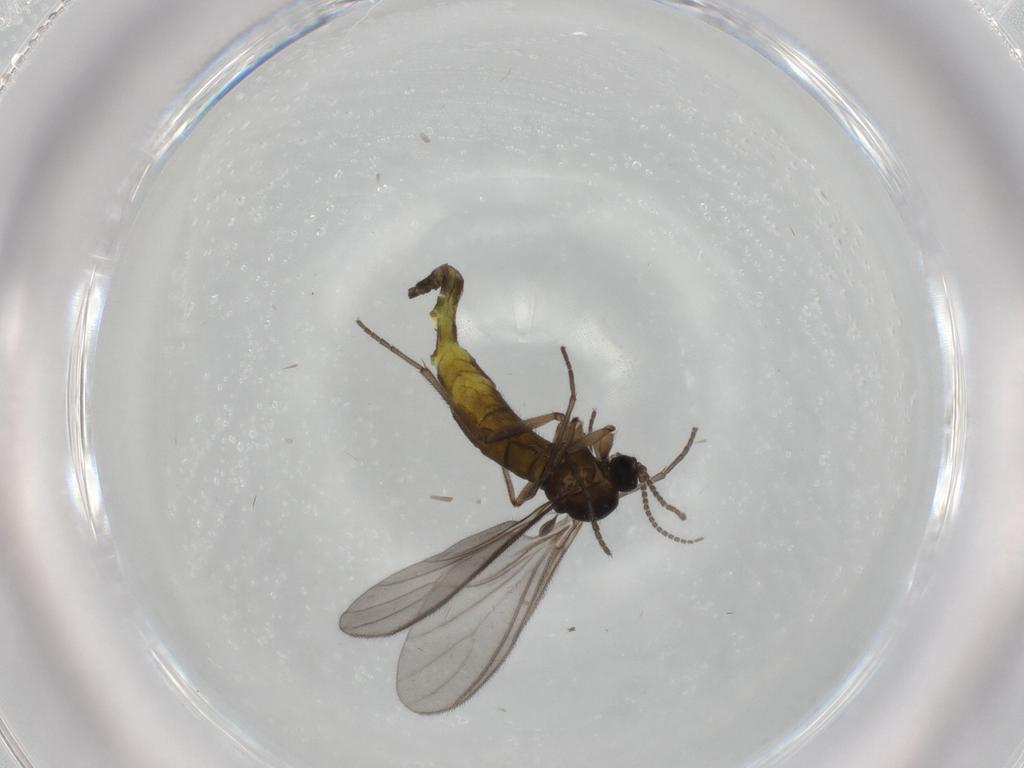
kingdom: Animalia
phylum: Arthropoda
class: Insecta
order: Diptera
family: Sciaridae
